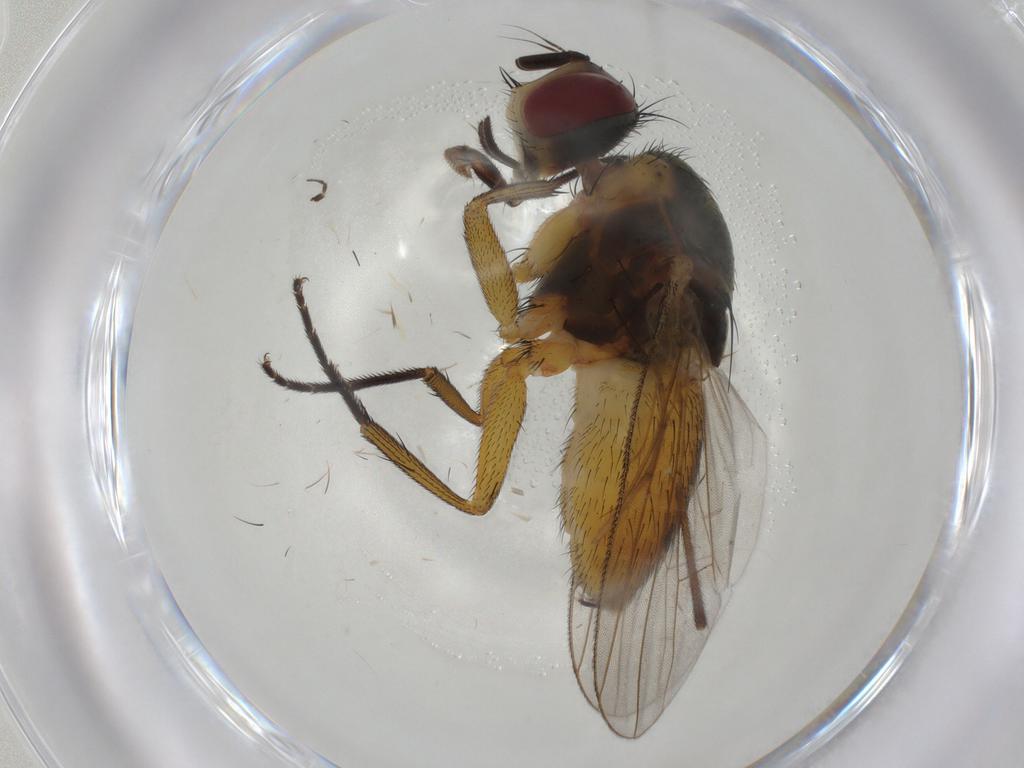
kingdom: Animalia
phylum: Arthropoda
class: Insecta
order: Diptera
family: Muscidae
